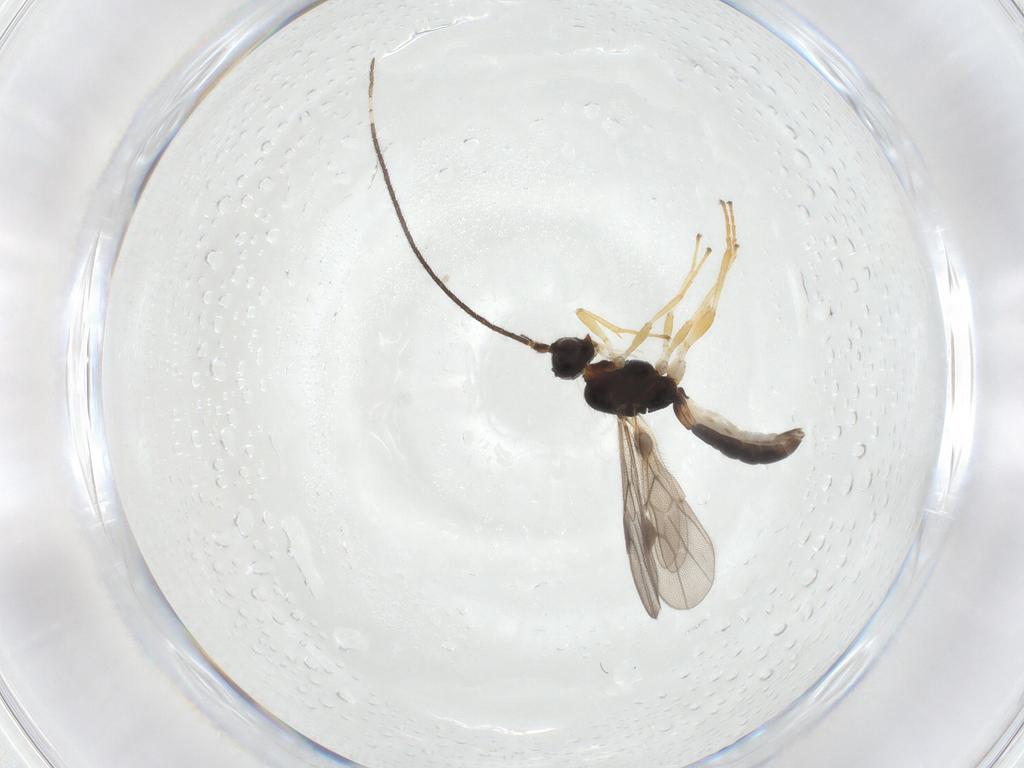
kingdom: Animalia
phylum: Arthropoda
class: Insecta
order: Hymenoptera
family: Braconidae
